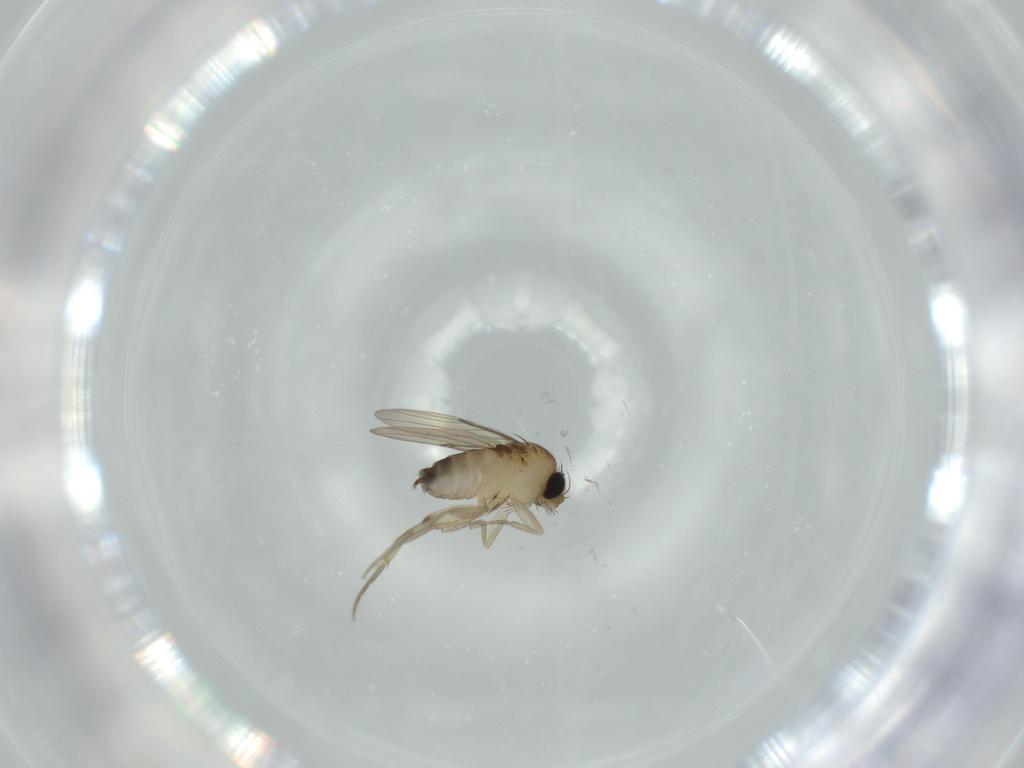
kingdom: Animalia
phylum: Arthropoda
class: Insecta
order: Diptera
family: Phoridae
